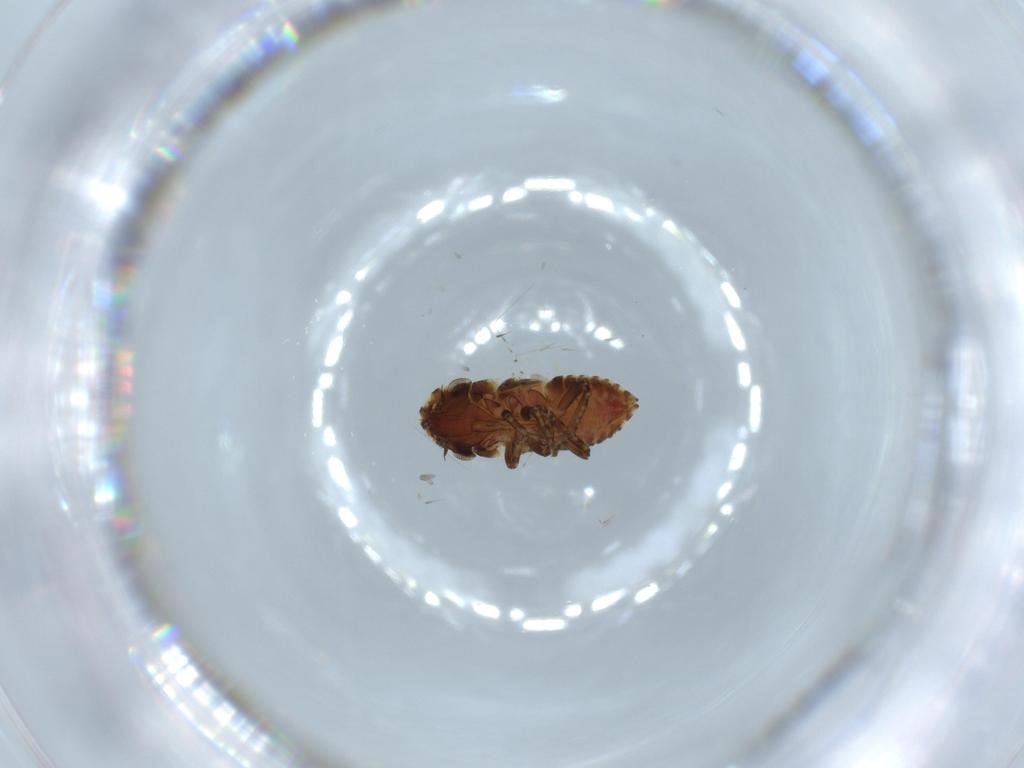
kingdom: Animalia
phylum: Arthropoda
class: Insecta
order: Hemiptera
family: Cicadellidae
